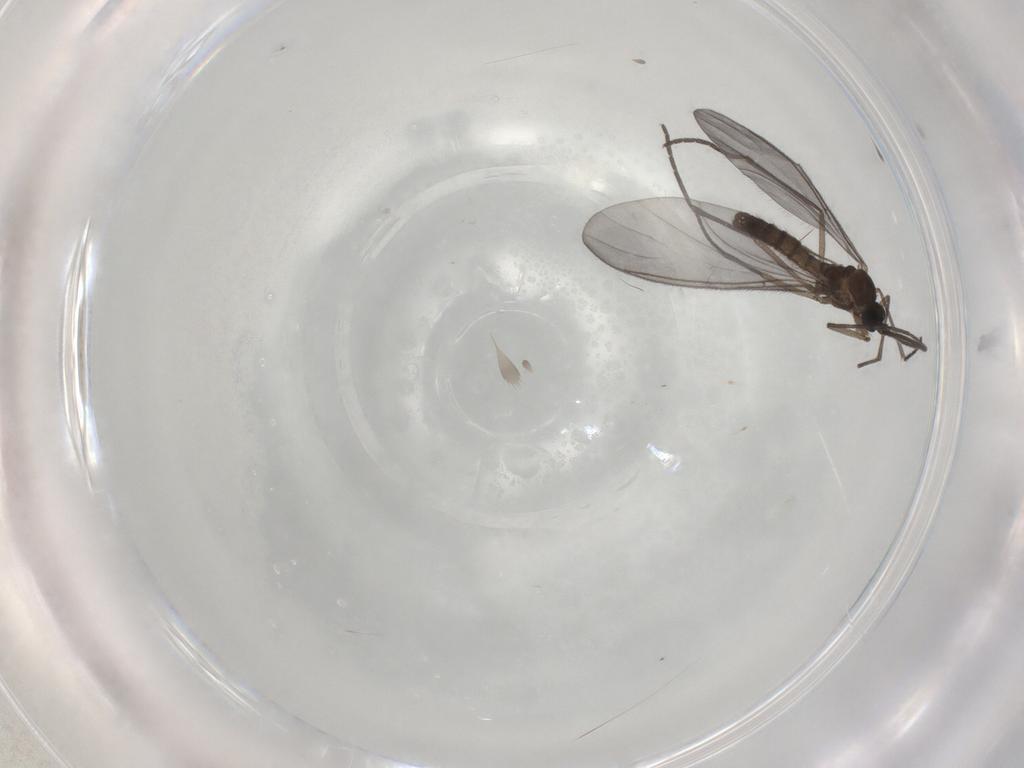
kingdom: Animalia
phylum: Arthropoda
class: Insecta
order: Diptera
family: Sciaridae
